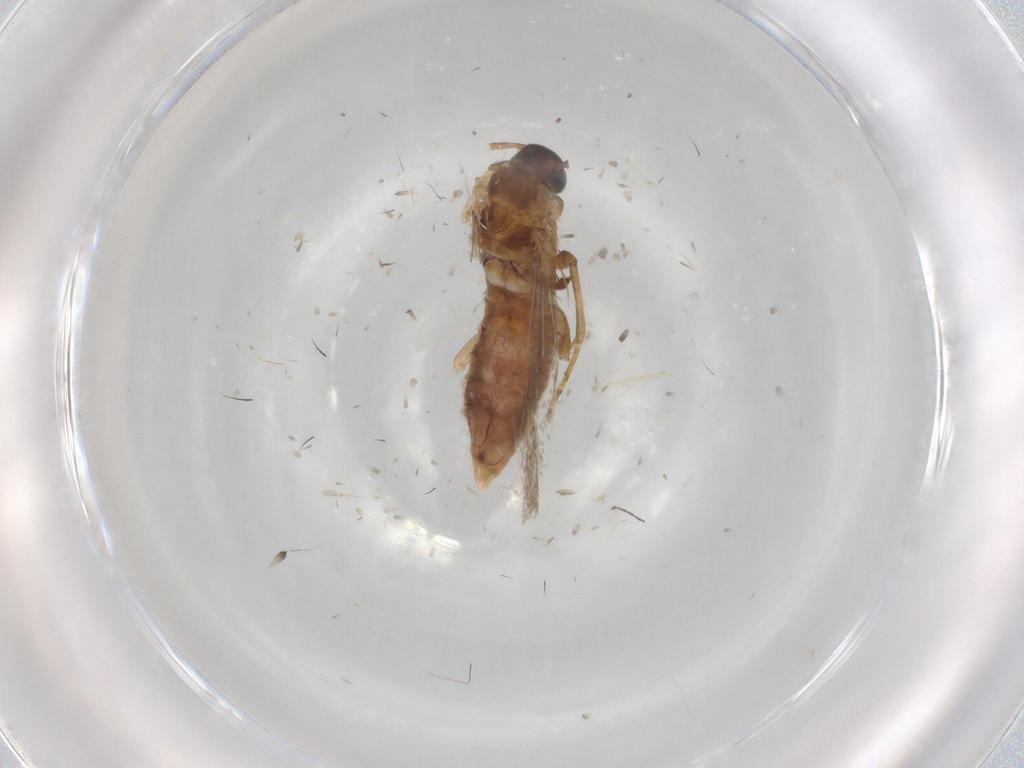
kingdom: Animalia
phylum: Arthropoda
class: Insecta
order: Lepidoptera
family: Gelechiidae
